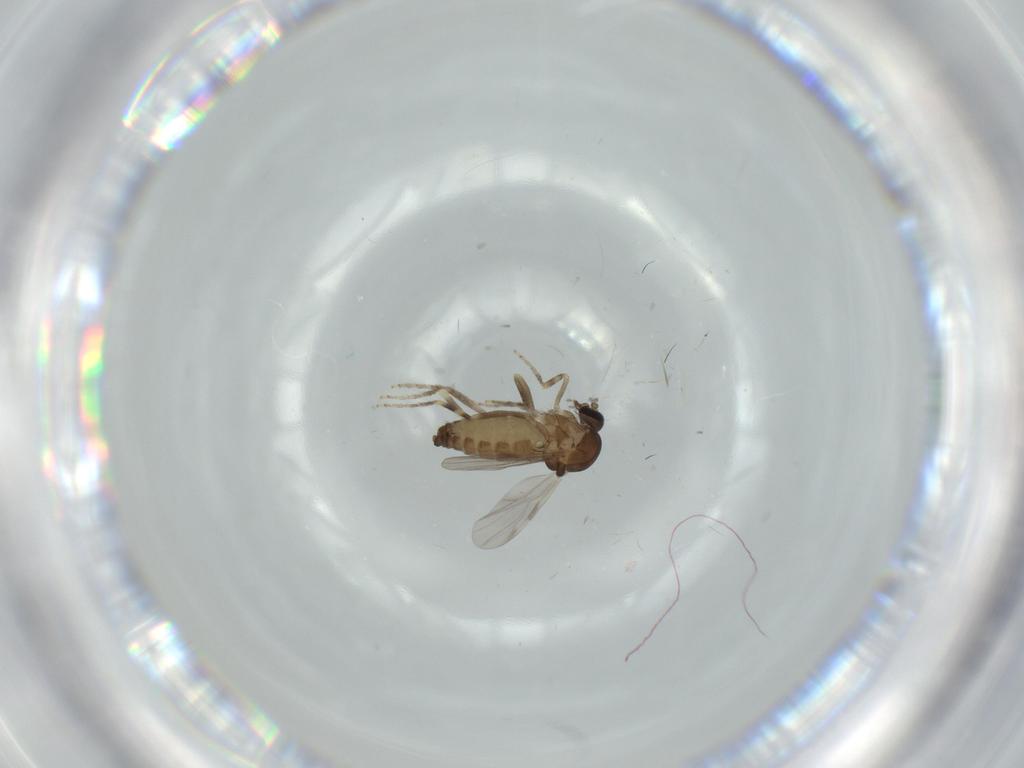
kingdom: Animalia
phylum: Arthropoda
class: Insecta
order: Diptera
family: Ceratopogonidae
